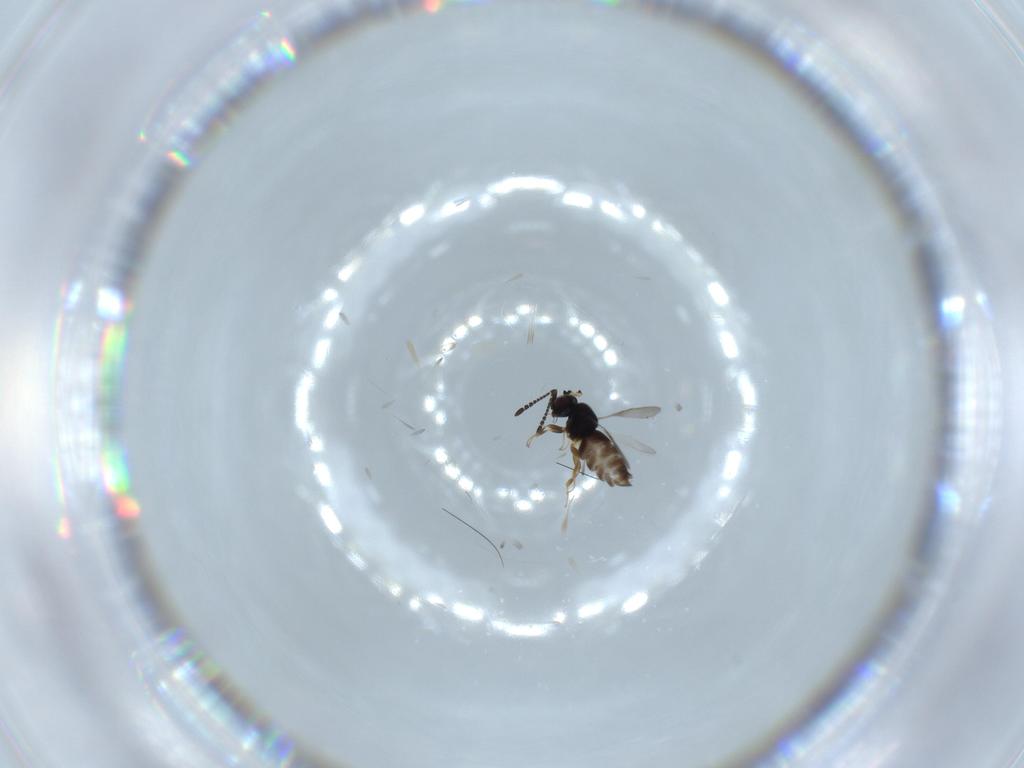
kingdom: Animalia
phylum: Arthropoda
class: Insecta
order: Hymenoptera
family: Ceraphronidae
